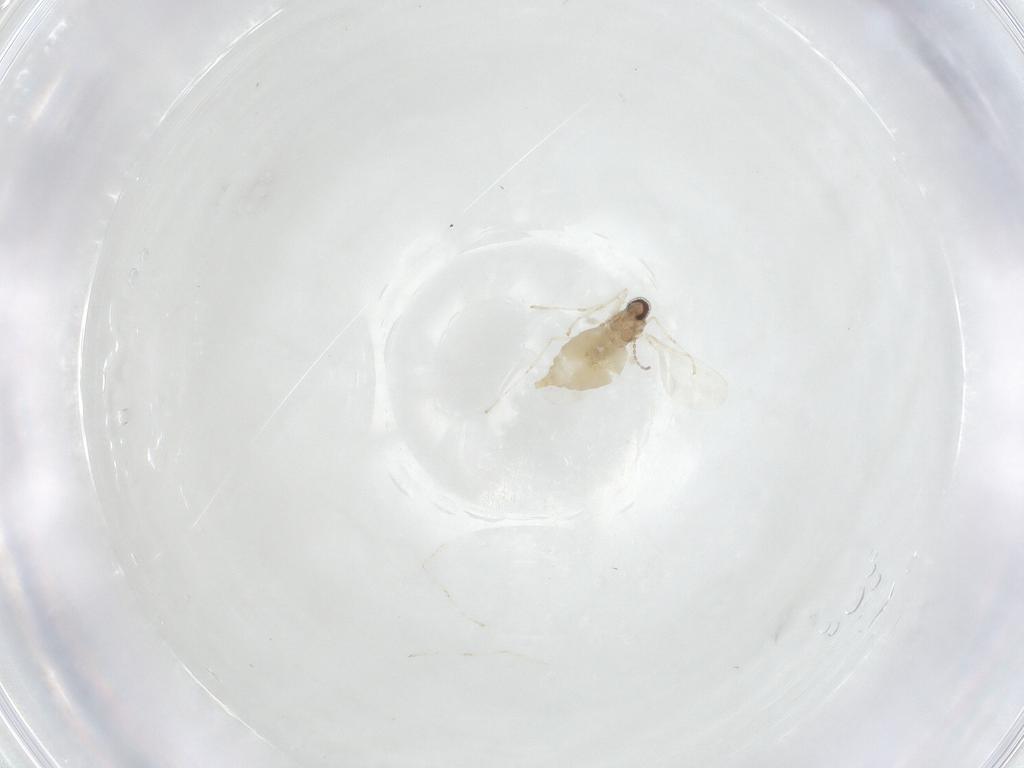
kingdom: Animalia
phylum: Arthropoda
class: Insecta
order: Diptera
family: Cecidomyiidae
